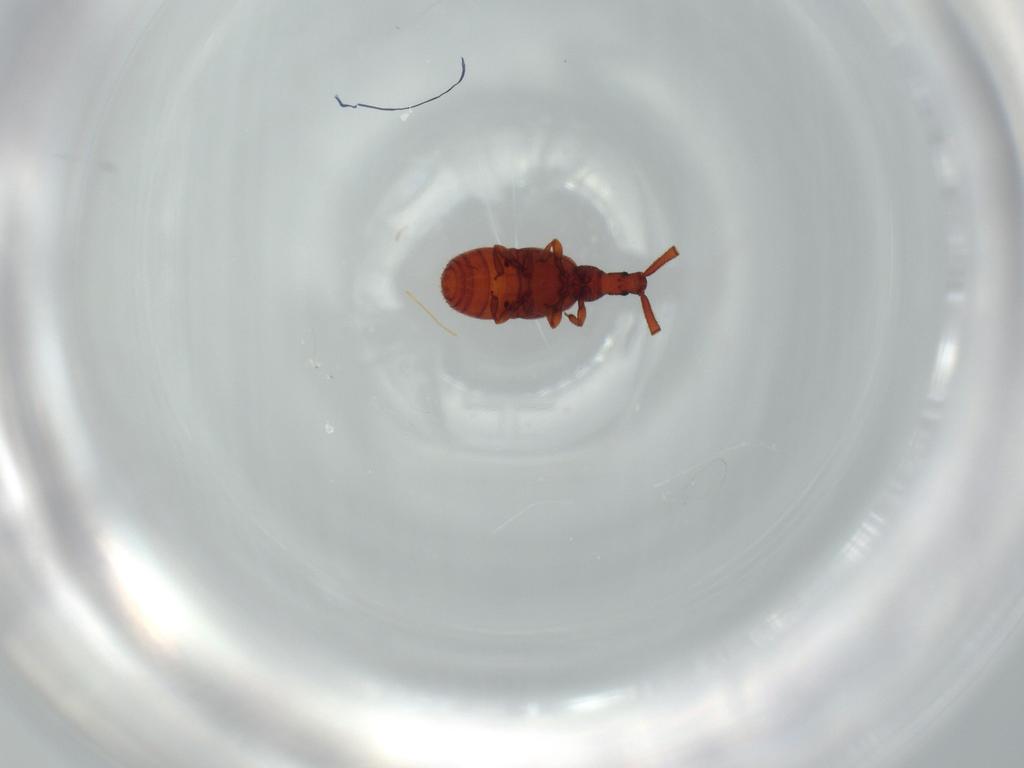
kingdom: Animalia
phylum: Arthropoda
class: Insecta
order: Coleoptera
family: Staphylinidae
